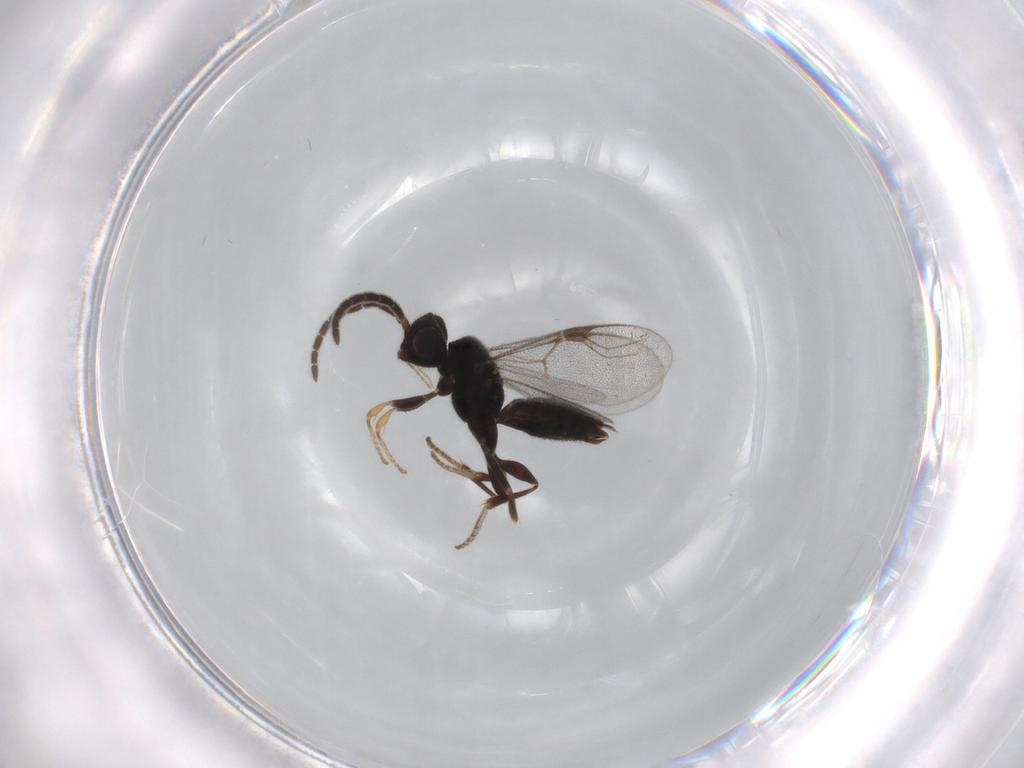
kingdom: Animalia
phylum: Arthropoda
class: Insecta
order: Hymenoptera
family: Dryinidae
